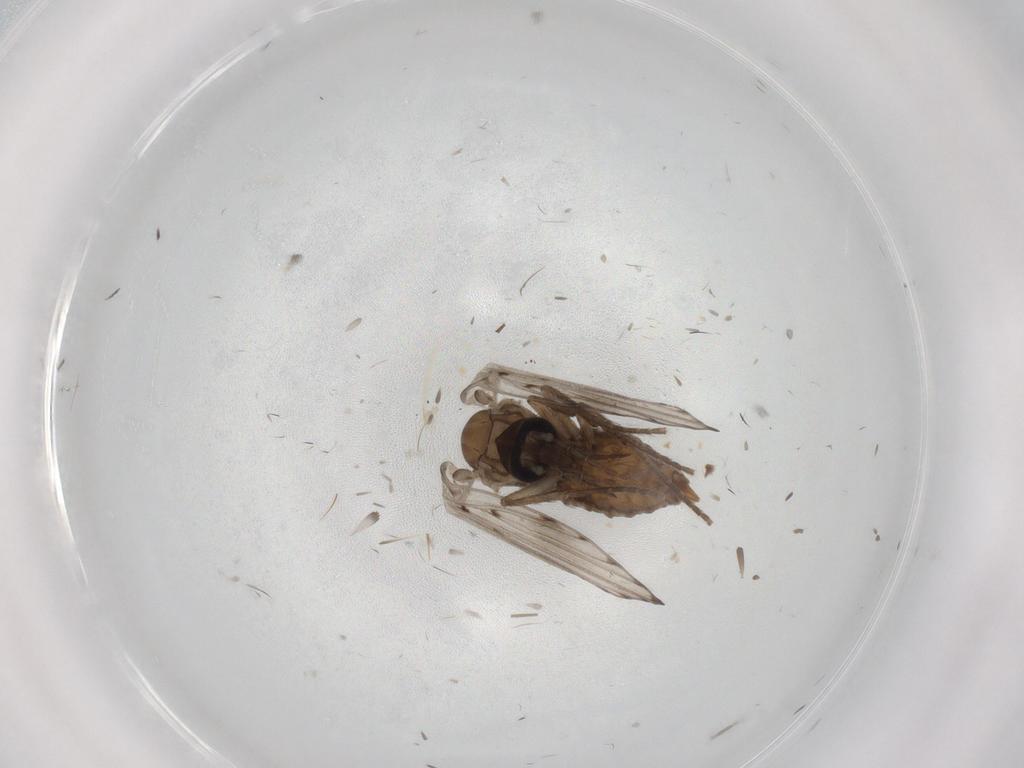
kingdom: Animalia
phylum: Arthropoda
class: Insecta
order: Diptera
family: Psychodidae
